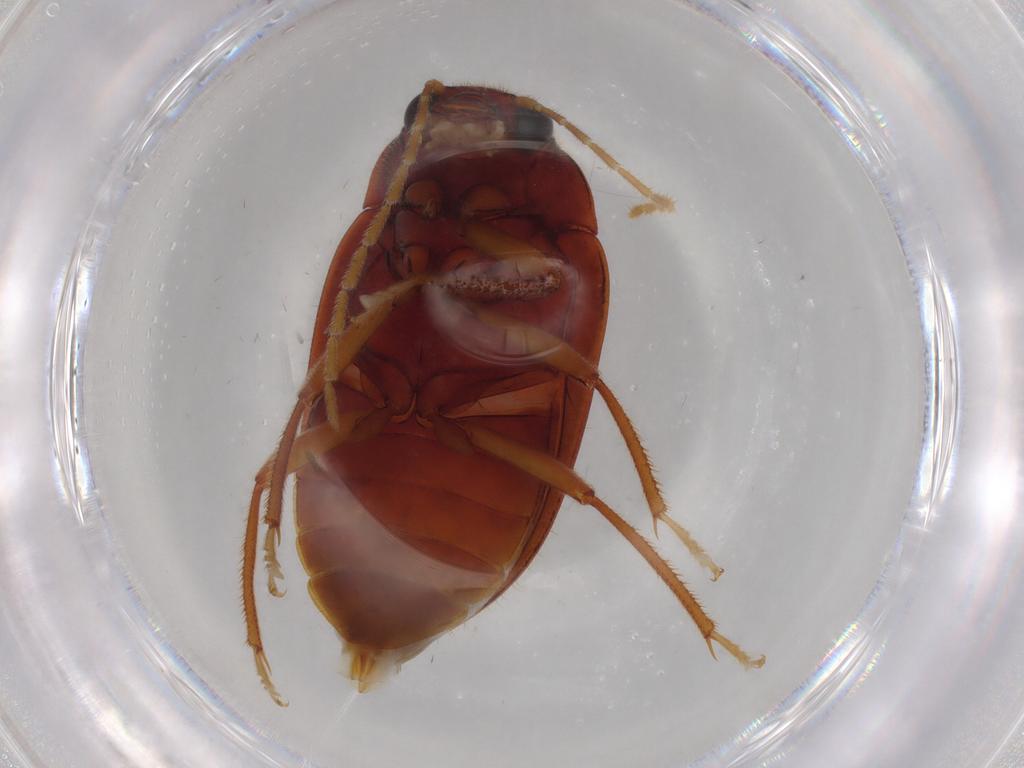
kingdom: Animalia
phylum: Arthropoda
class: Insecta
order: Coleoptera
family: Ptilodactylidae
